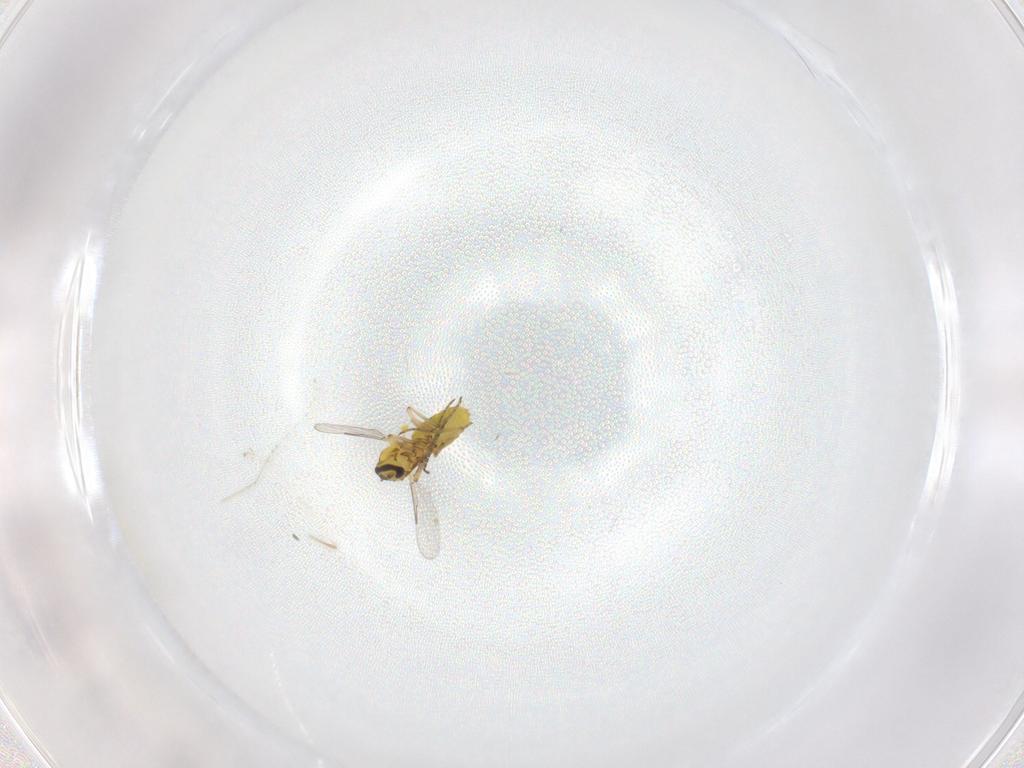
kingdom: Animalia
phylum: Arthropoda
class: Insecta
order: Diptera
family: Ceratopogonidae
